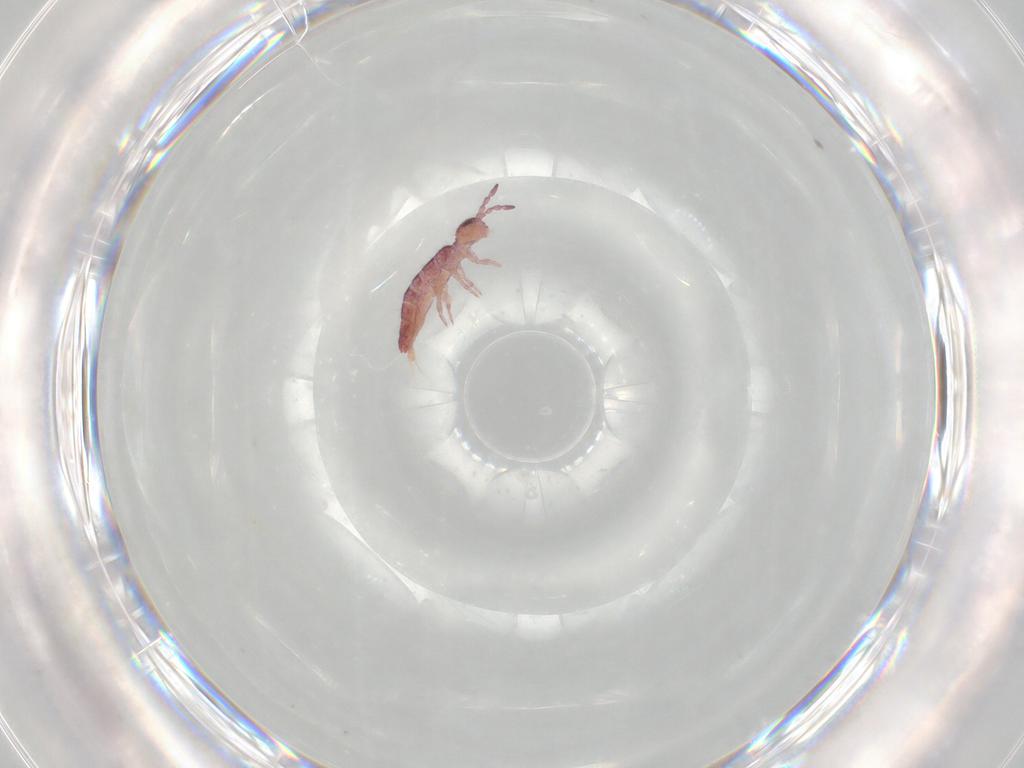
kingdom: Animalia
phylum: Arthropoda
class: Collembola
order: Entomobryomorpha
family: Isotomidae
